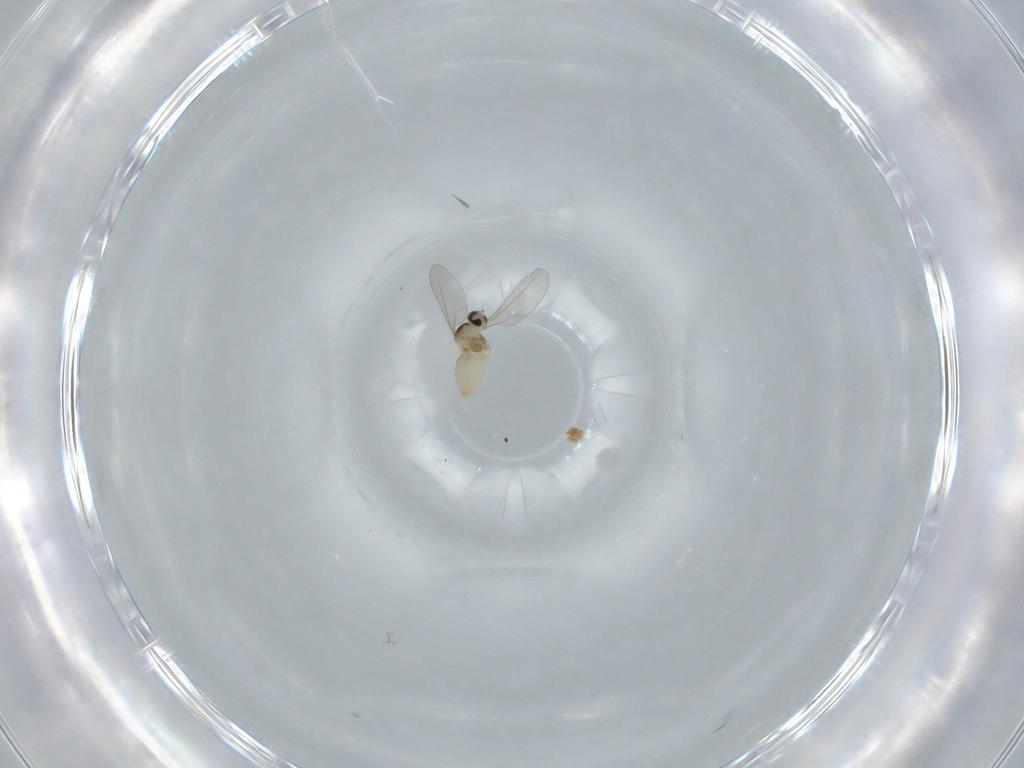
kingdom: Animalia
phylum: Arthropoda
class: Insecta
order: Diptera
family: Cecidomyiidae
